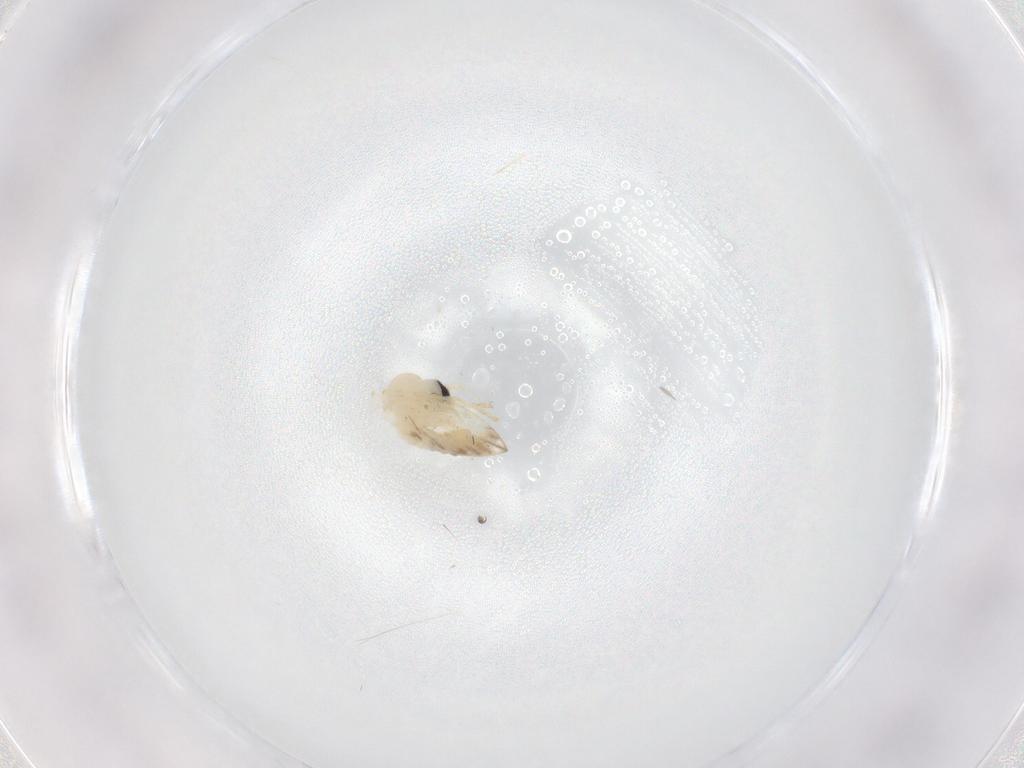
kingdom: Animalia
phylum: Arthropoda
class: Insecta
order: Diptera
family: Psychodidae
